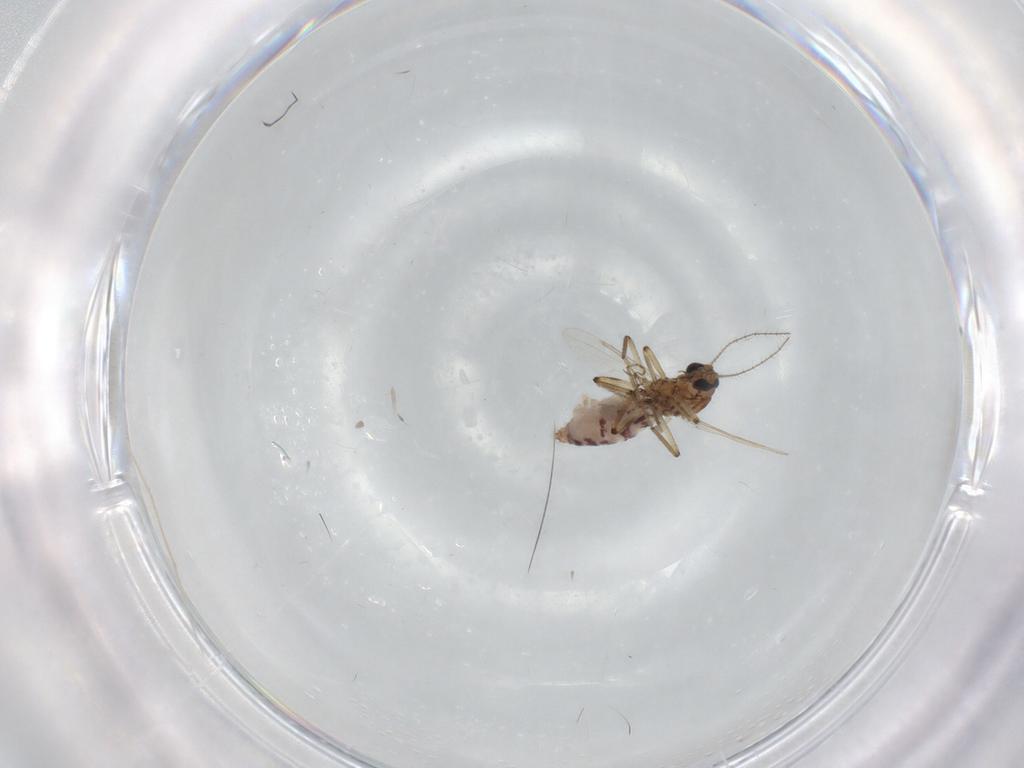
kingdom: Animalia
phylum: Arthropoda
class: Insecta
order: Diptera
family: Ceratopogonidae
